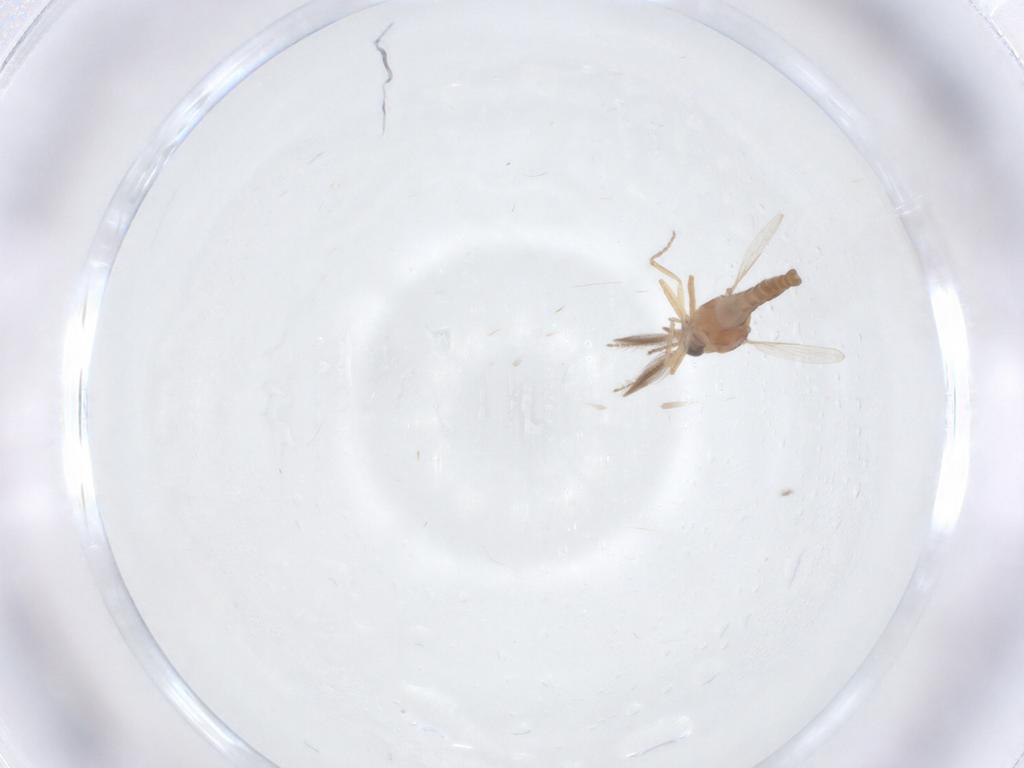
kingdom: Animalia
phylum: Arthropoda
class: Insecta
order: Diptera
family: Ceratopogonidae
